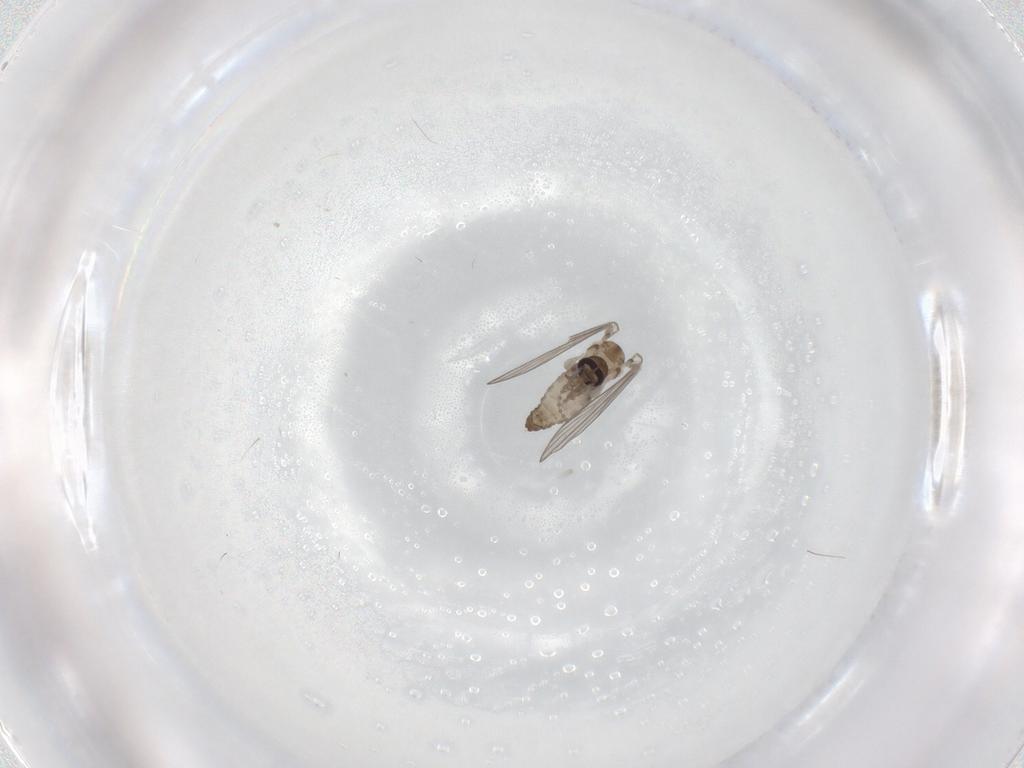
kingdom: Animalia
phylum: Arthropoda
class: Insecta
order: Diptera
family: Psychodidae
